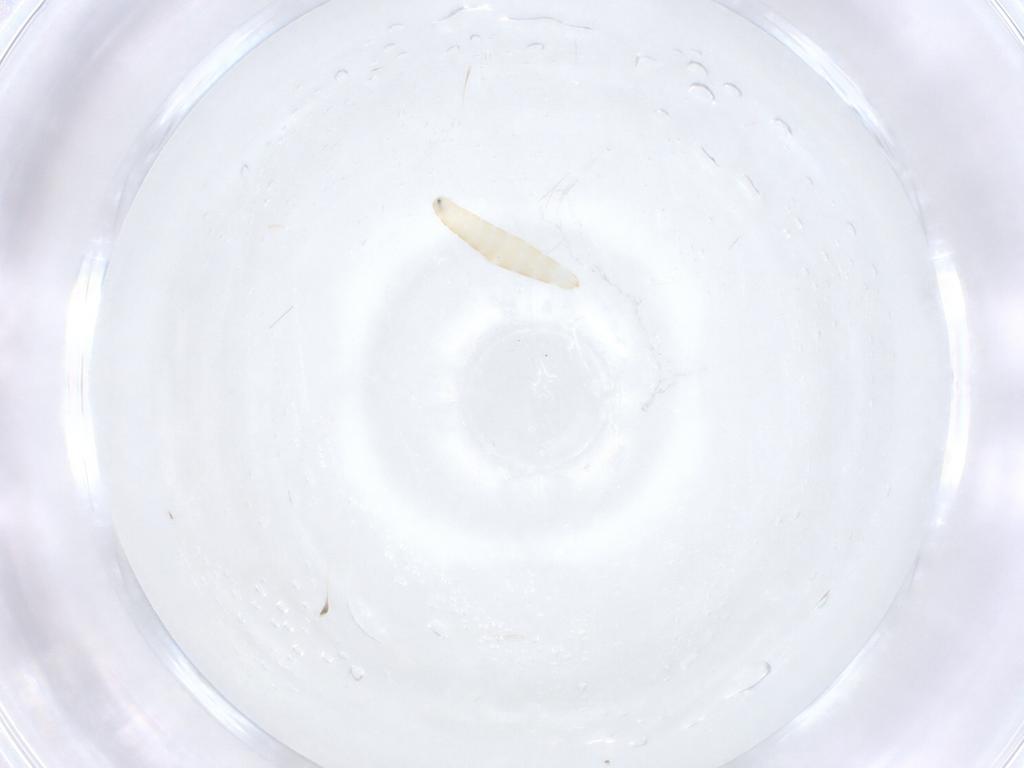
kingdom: Animalia
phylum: Arthropoda
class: Insecta
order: Diptera
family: Tachinidae
